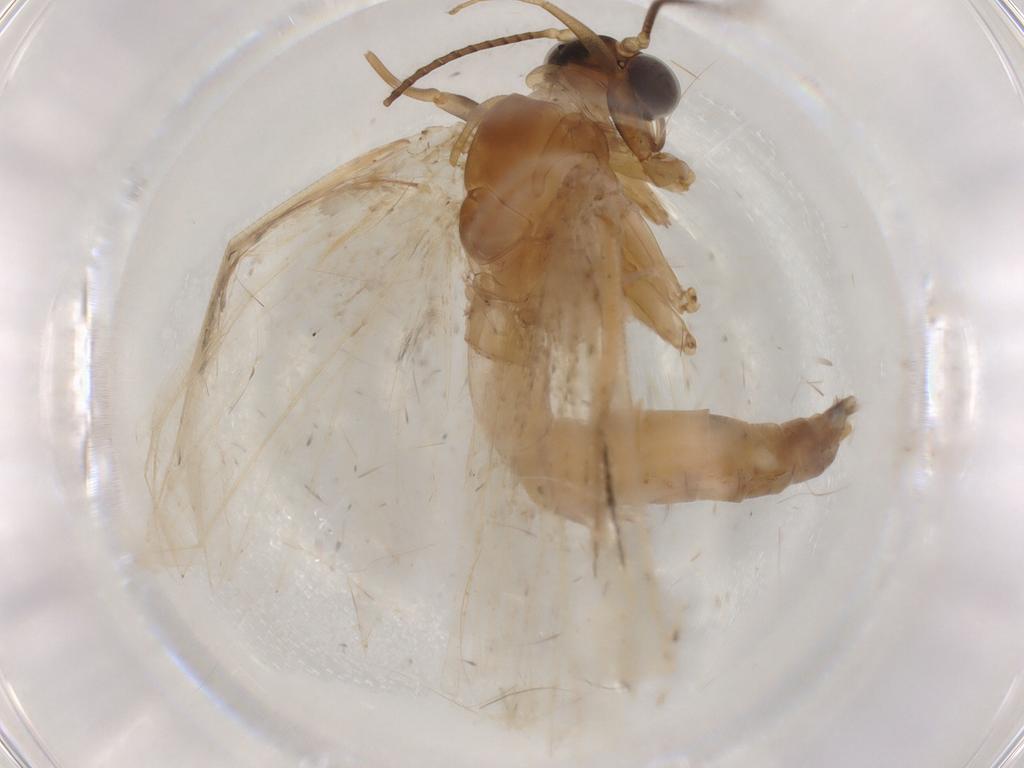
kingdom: Animalia
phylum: Arthropoda
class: Insecta
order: Lepidoptera
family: Erebidae
